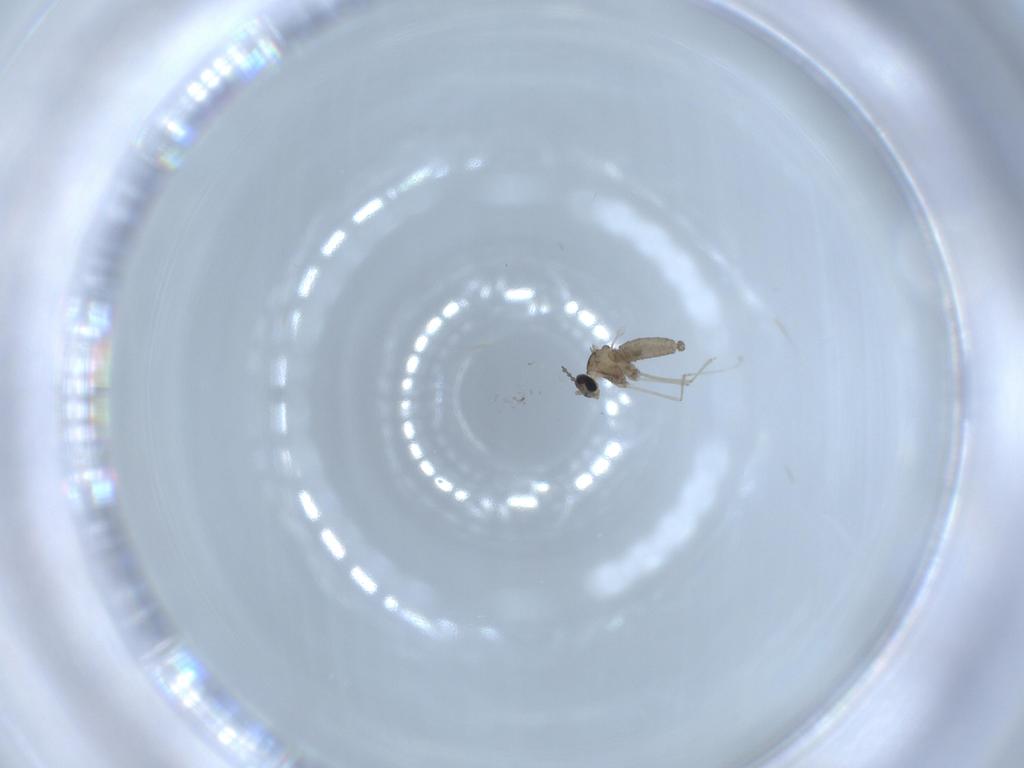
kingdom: Animalia
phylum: Arthropoda
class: Insecta
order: Diptera
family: Cecidomyiidae
